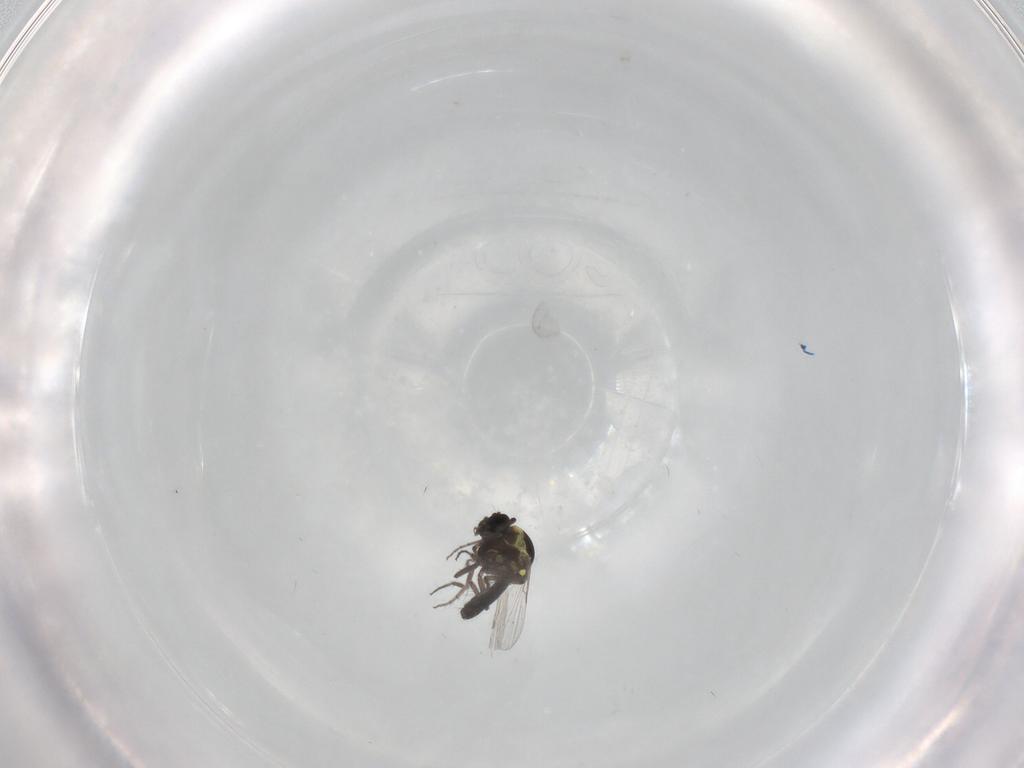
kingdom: Animalia
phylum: Arthropoda
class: Insecta
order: Diptera
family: Ceratopogonidae
